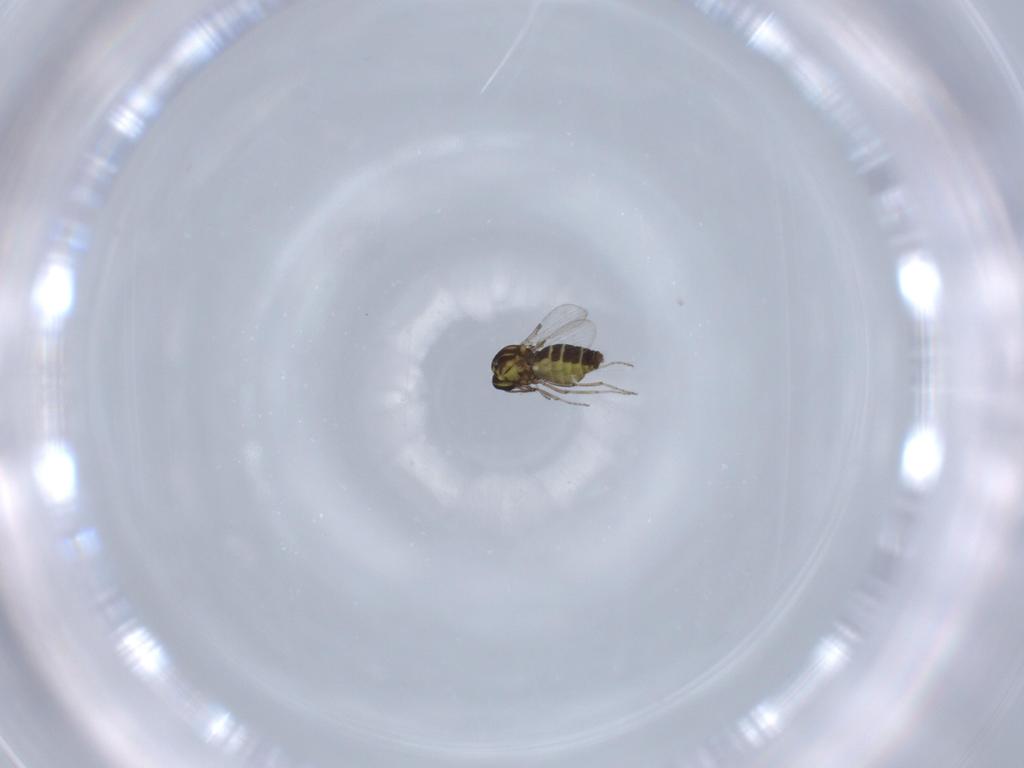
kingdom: Animalia
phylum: Arthropoda
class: Insecta
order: Diptera
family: Ceratopogonidae
